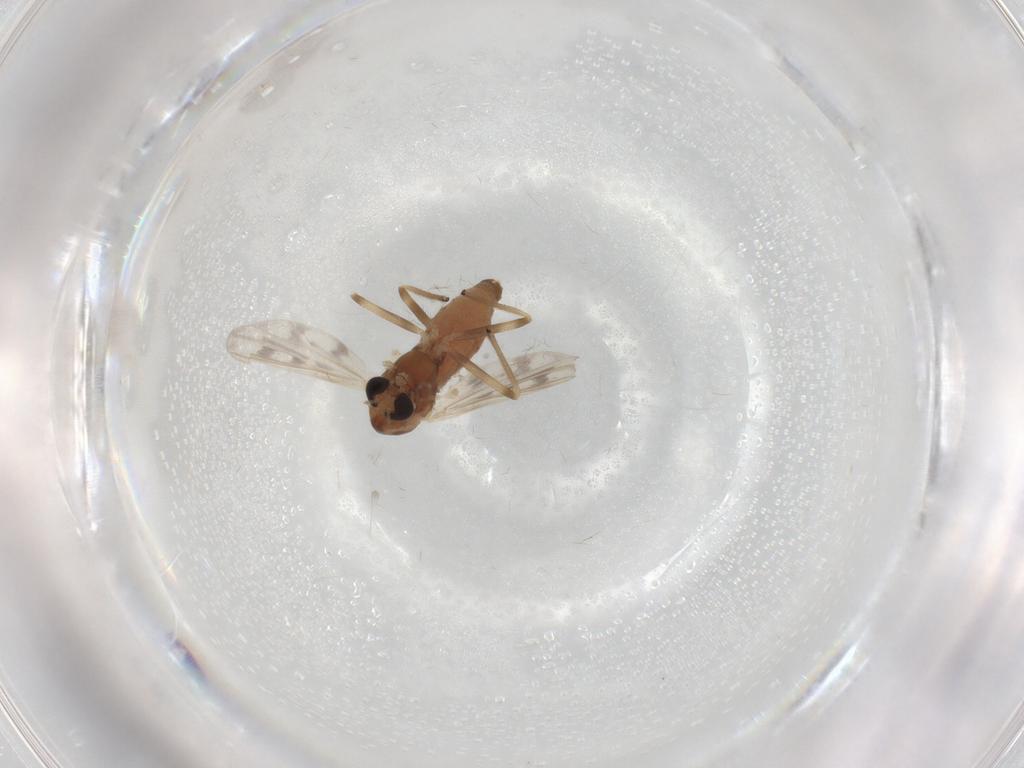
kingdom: Animalia
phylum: Arthropoda
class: Insecta
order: Diptera
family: Chironomidae
